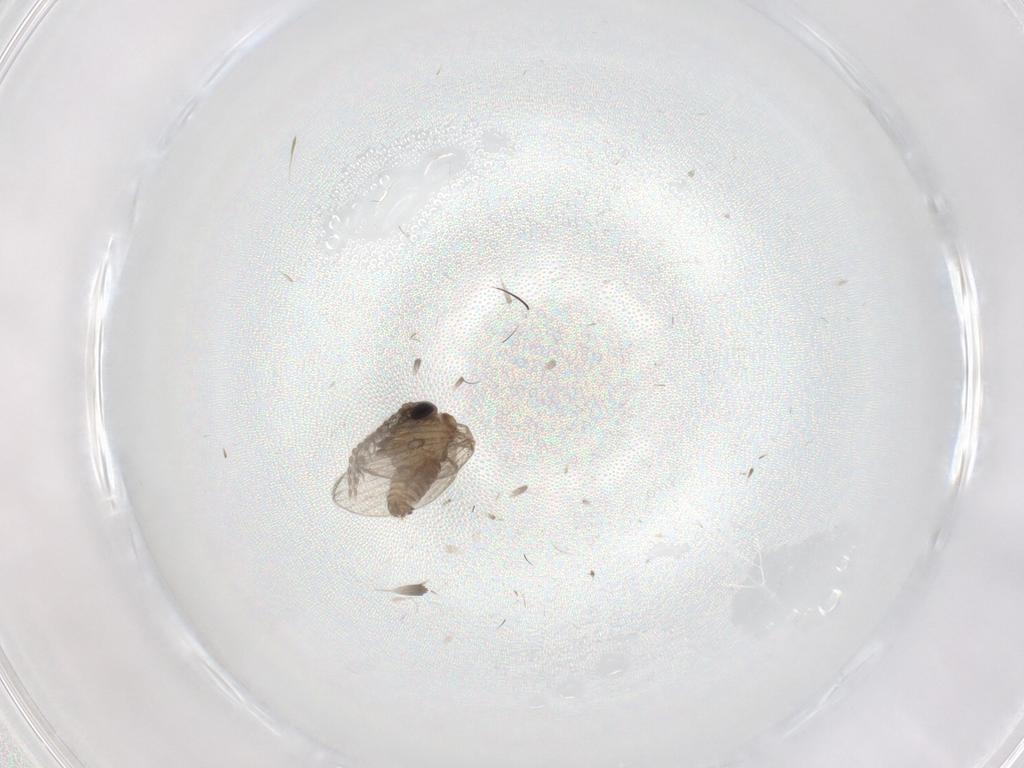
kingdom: Animalia
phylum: Arthropoda
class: Insecta
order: Diptera
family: Psychodidae
